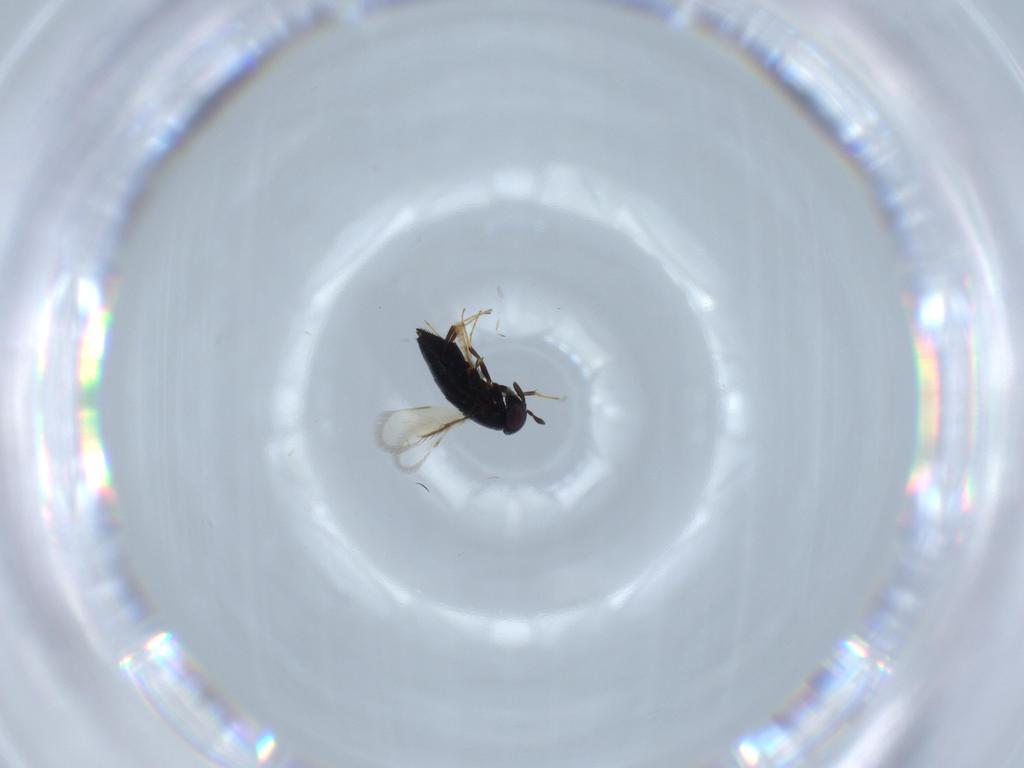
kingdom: Animalia
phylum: Arthropoda
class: Insecta
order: Hymenoptera
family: Signiphoridae
